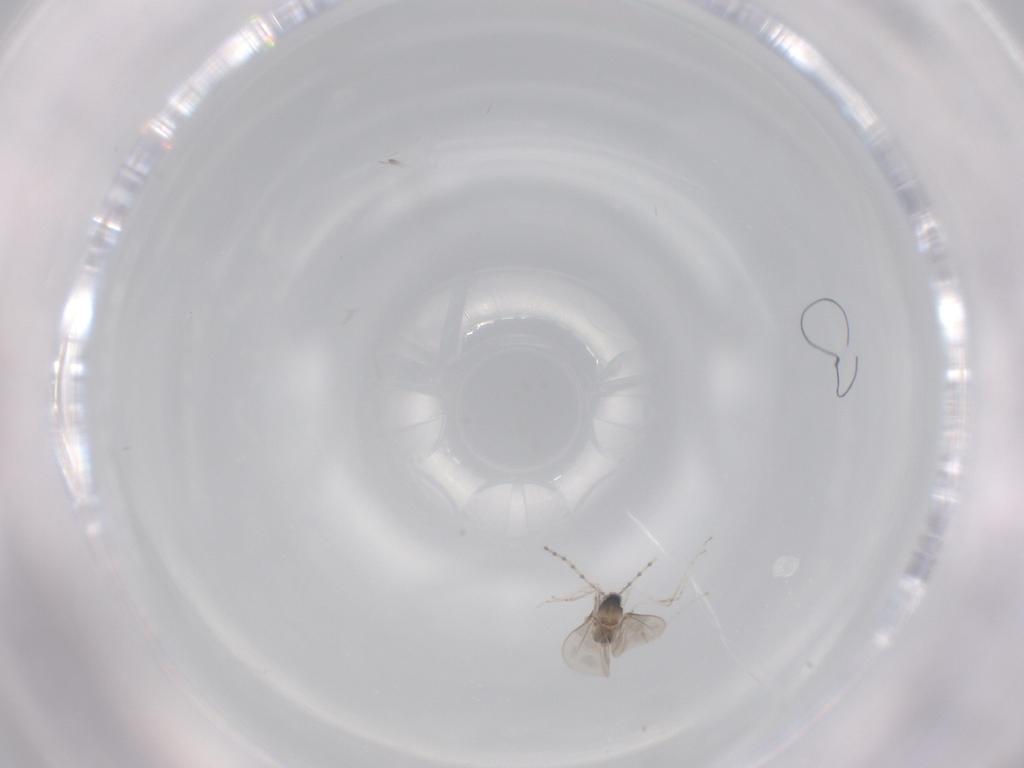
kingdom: Animalia
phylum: Arthropoda
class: Insecta
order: Diptera
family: Cecidomyiidae
